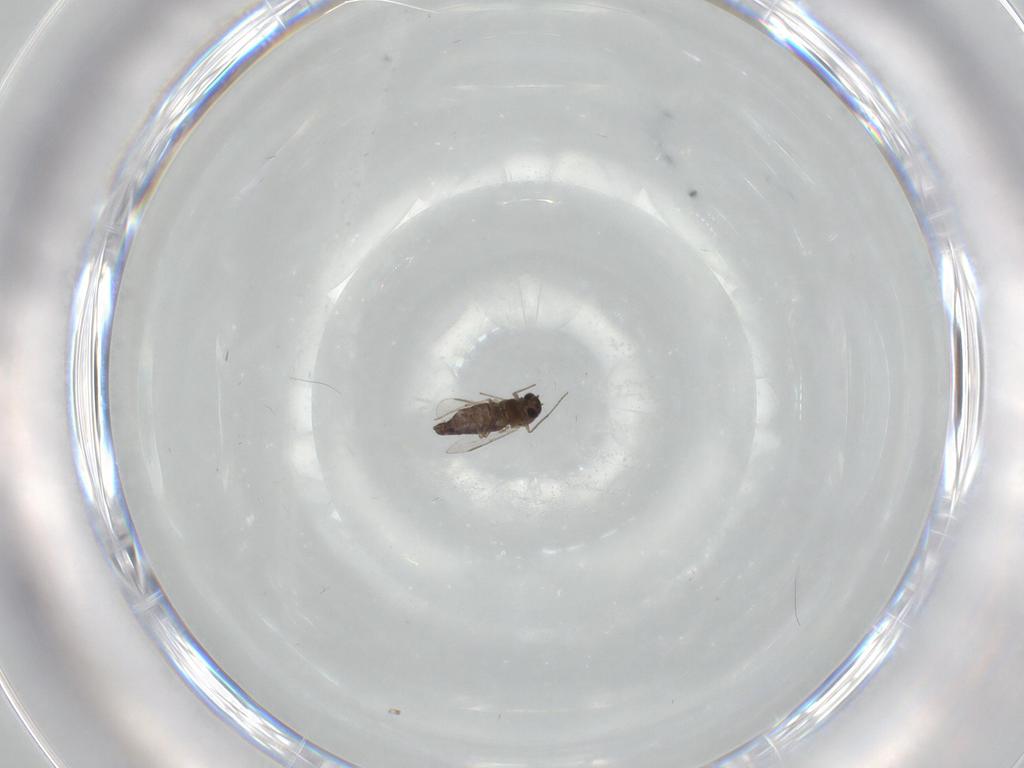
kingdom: Animalia
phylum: Arthropoda
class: Insecta
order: Diptera
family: Chironomidae
